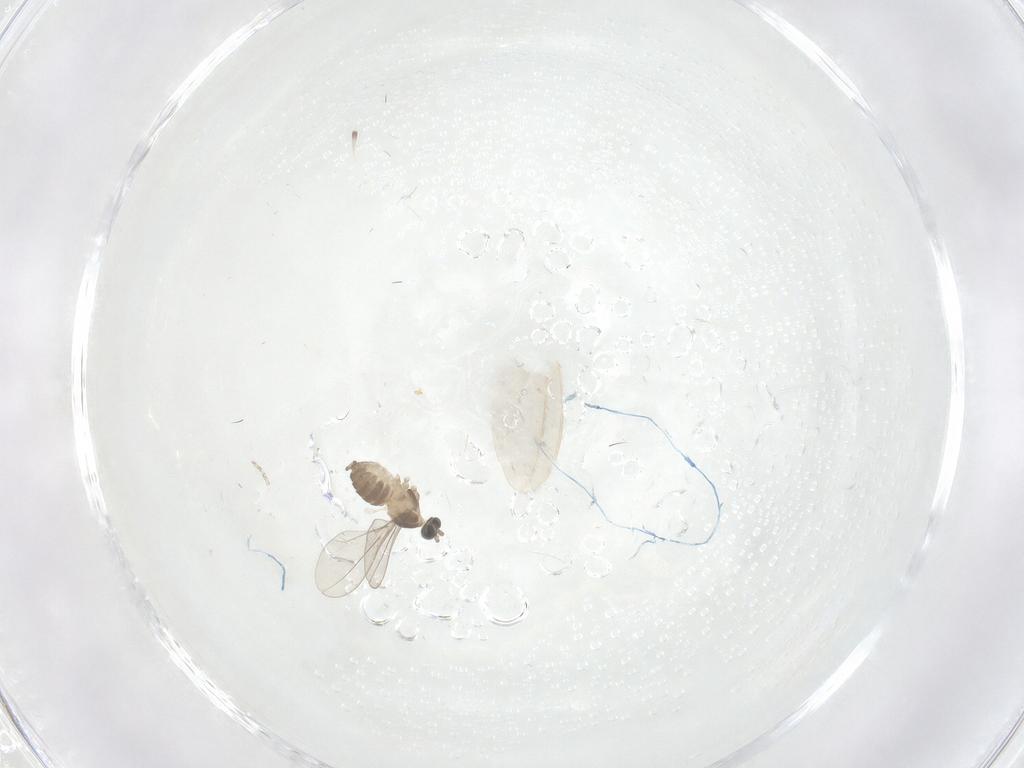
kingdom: Animalia
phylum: Arthropoda
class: Insecta
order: Diptera
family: Cecidomyiidae
